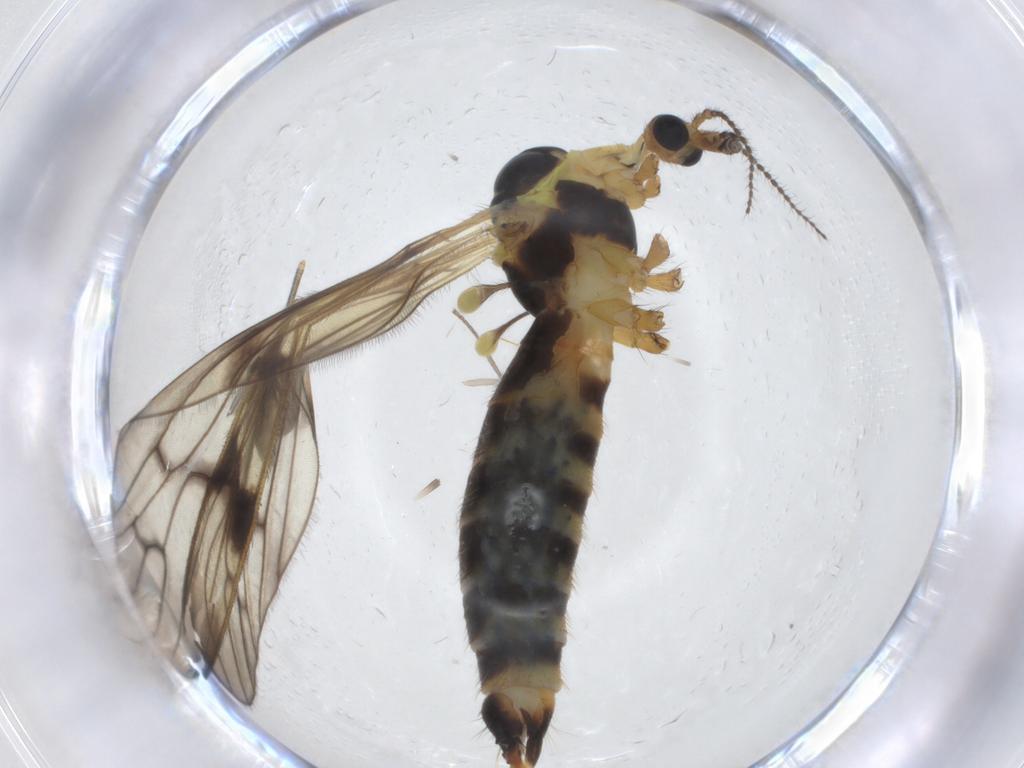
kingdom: Animalia
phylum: Arthropoda
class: Insecta
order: Diptera
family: Limoniidae
